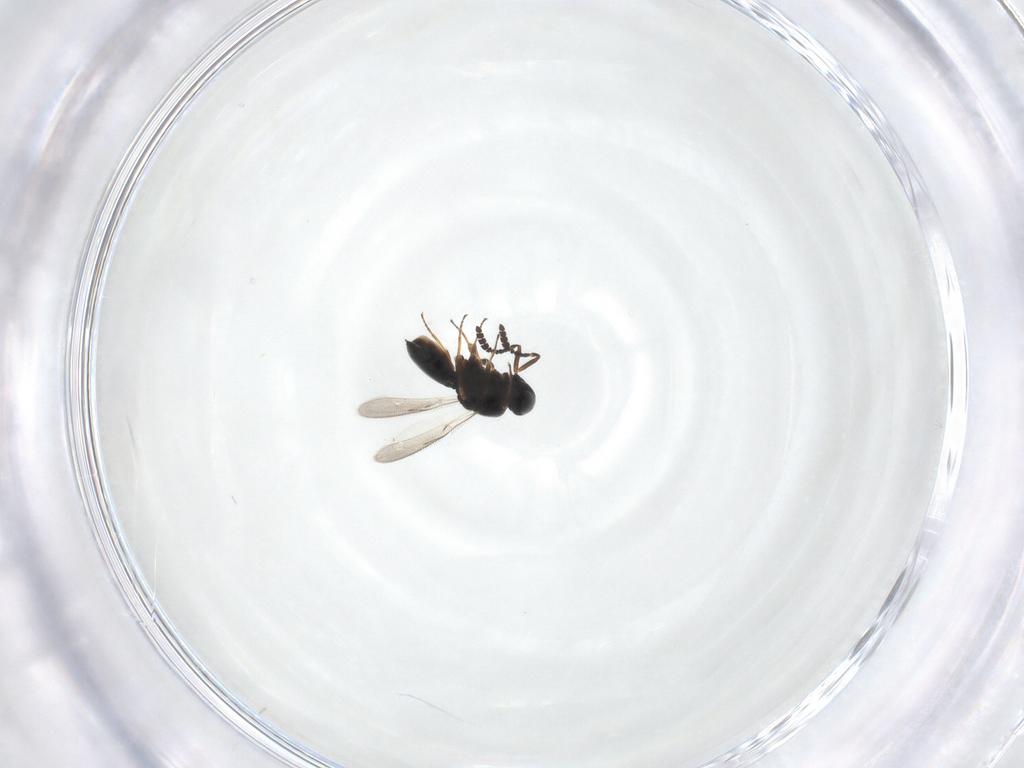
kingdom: Animalia
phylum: Arthropoda
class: Insecta
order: Hymenoptera
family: Scelionidae
